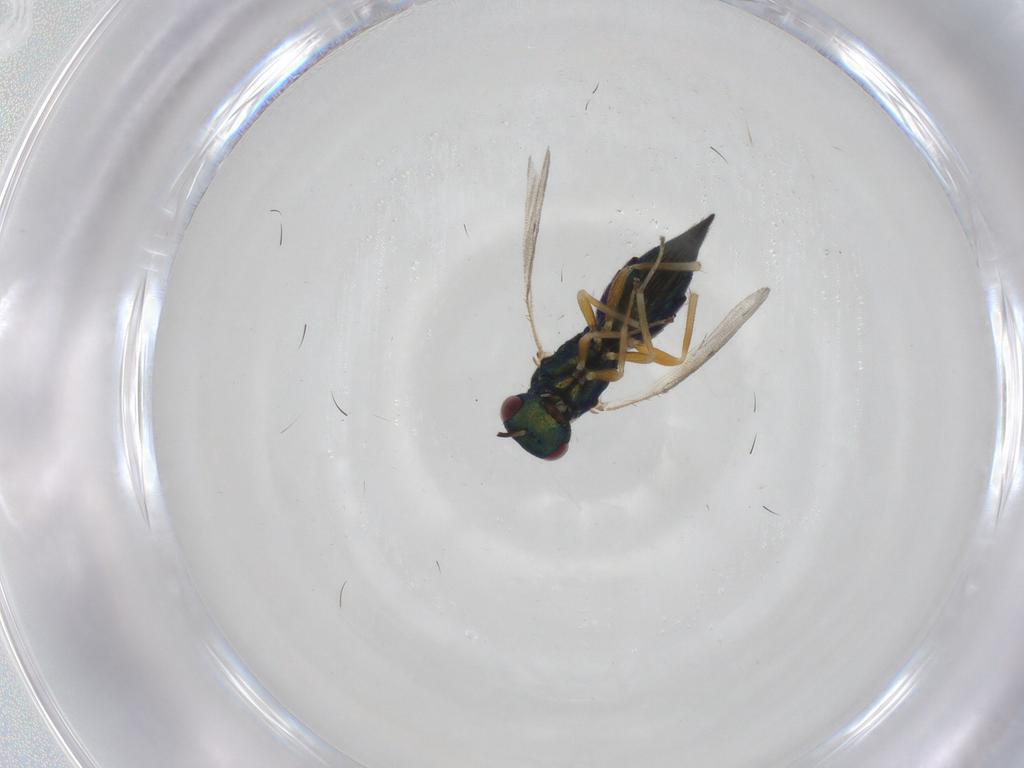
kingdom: Animalia
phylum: Arthropoda
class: Insecta
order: Hymenoptera
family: Pteromalidae
